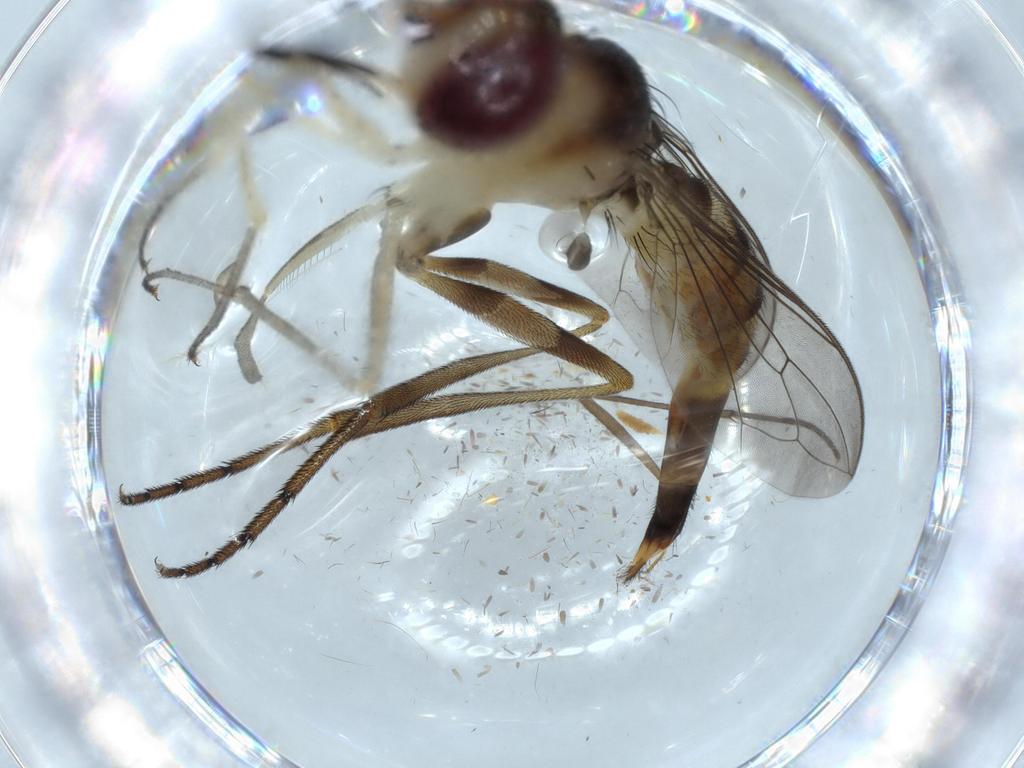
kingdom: Animalia
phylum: Arthropoda
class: Insecta
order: Diptera
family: Conopidae
